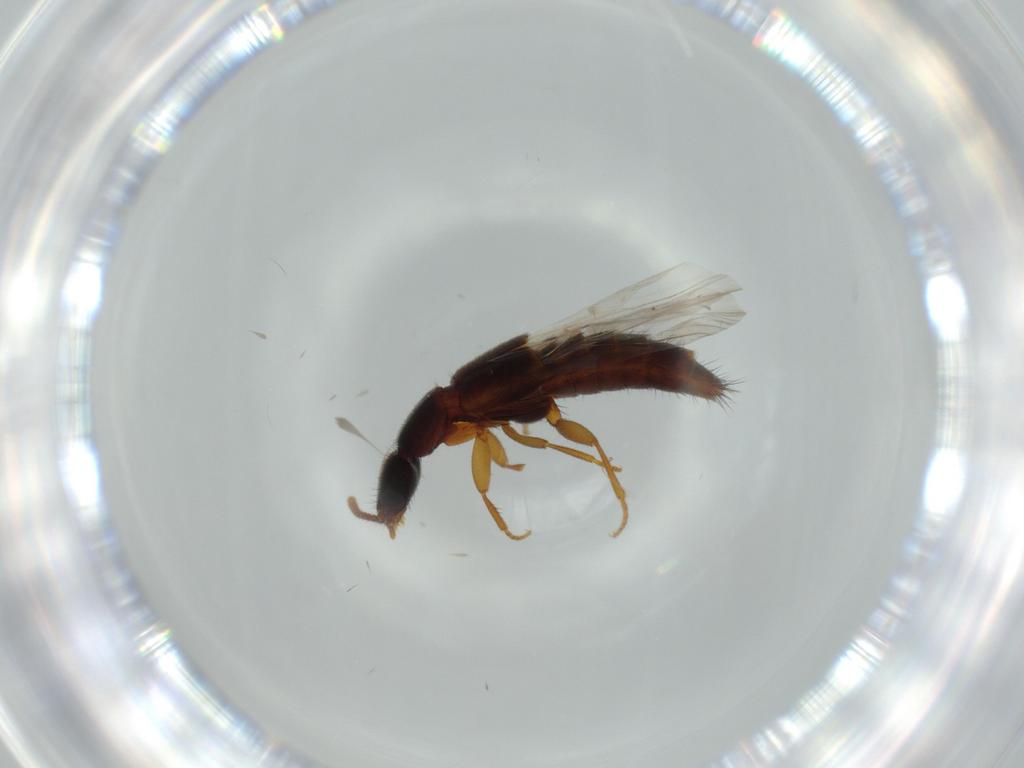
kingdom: Animalia
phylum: Arthropoda
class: Insecta
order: Coleoptera
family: Staphylinidae
